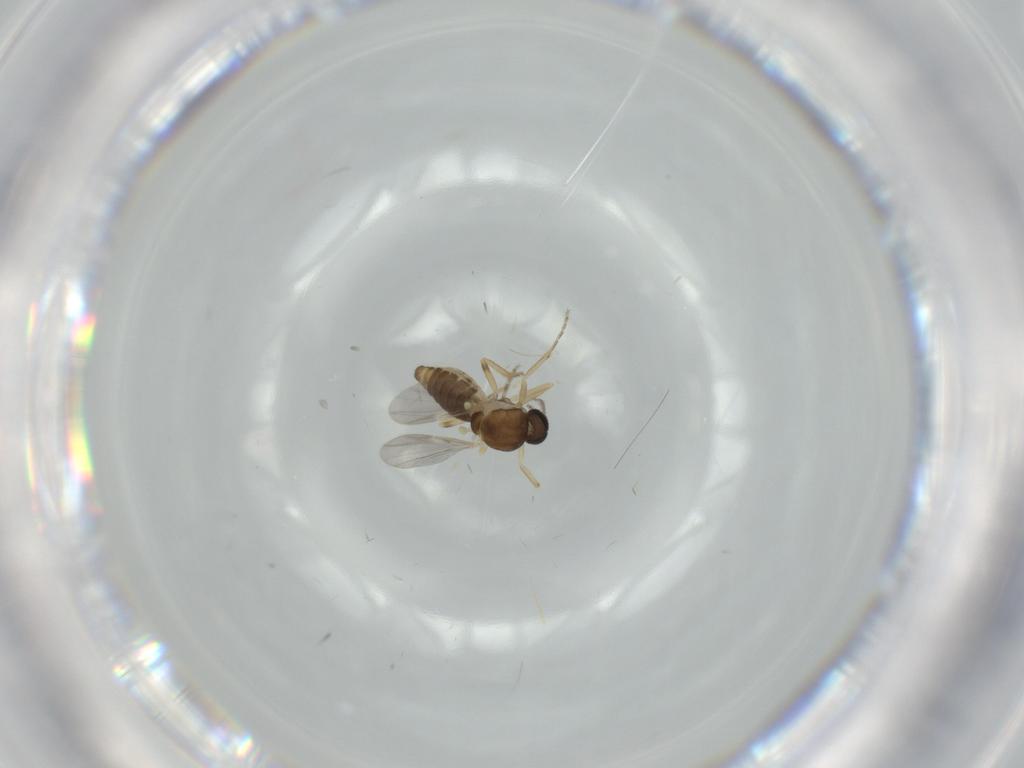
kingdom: Animalia
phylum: Arthropoda
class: Insecta
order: Diptera
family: Ceratopogonidae
